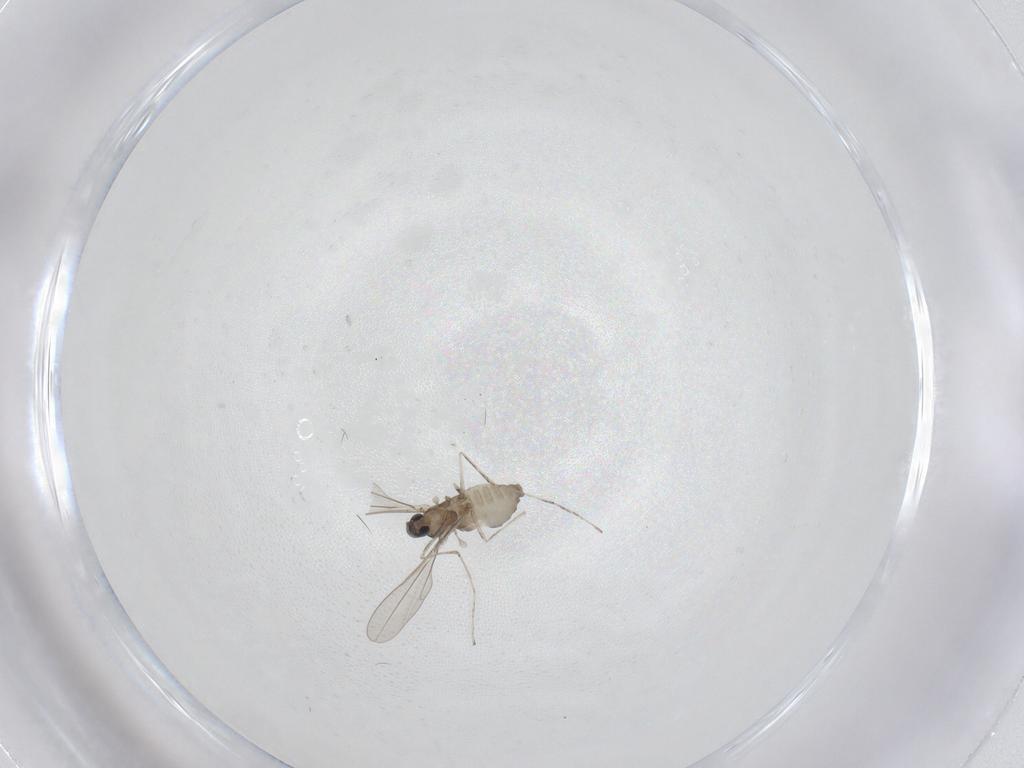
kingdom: Animalia
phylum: Arthropoda
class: Insecta
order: Diptera
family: Cecidomyiidae
